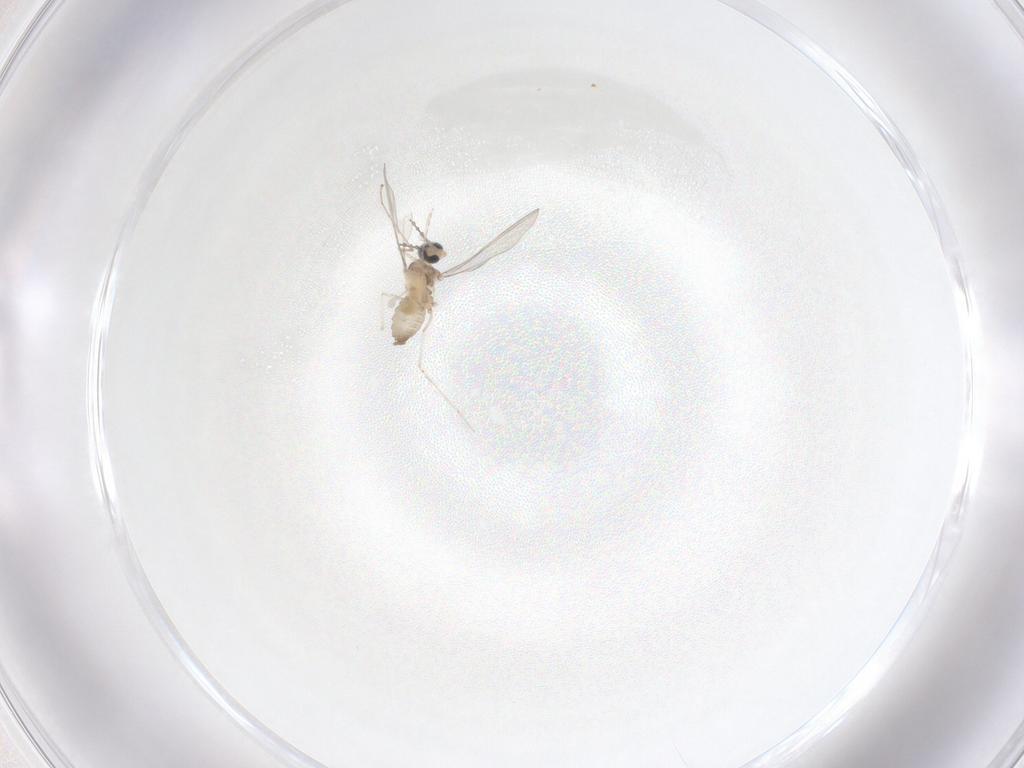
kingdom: Animalia
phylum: Arthropoda
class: Insecta
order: Diptera
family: Cecidomyiidae
